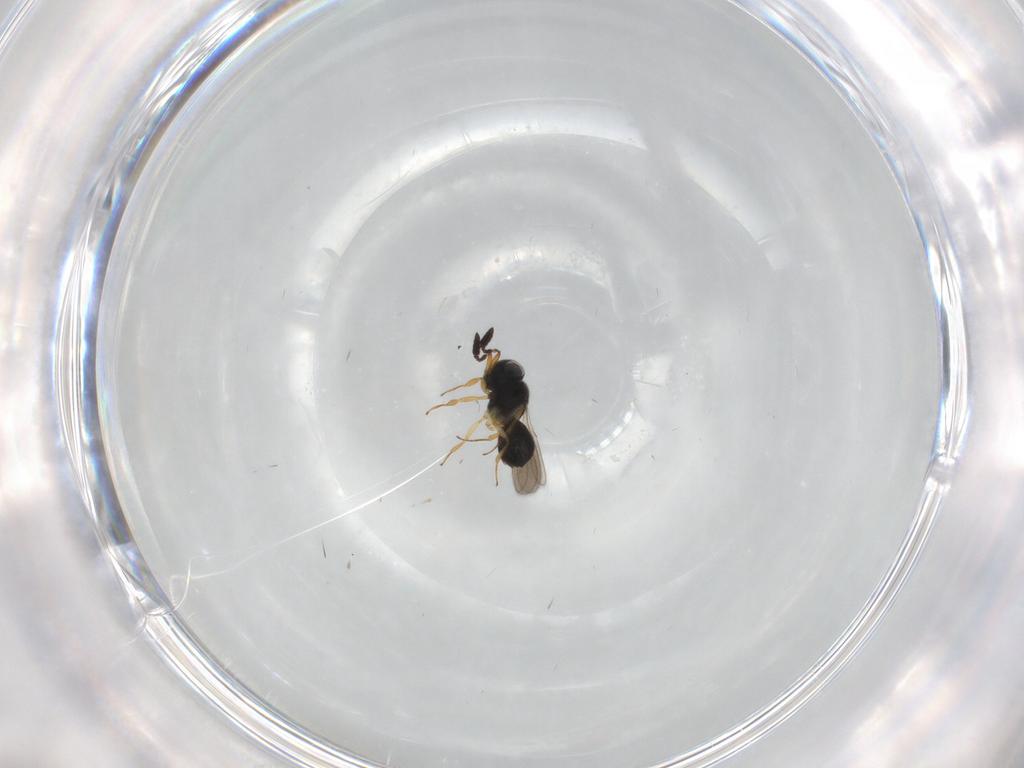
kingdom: Animalia
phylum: Arthropoda
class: Insecta
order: Hymenoptera
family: Scelionidae
